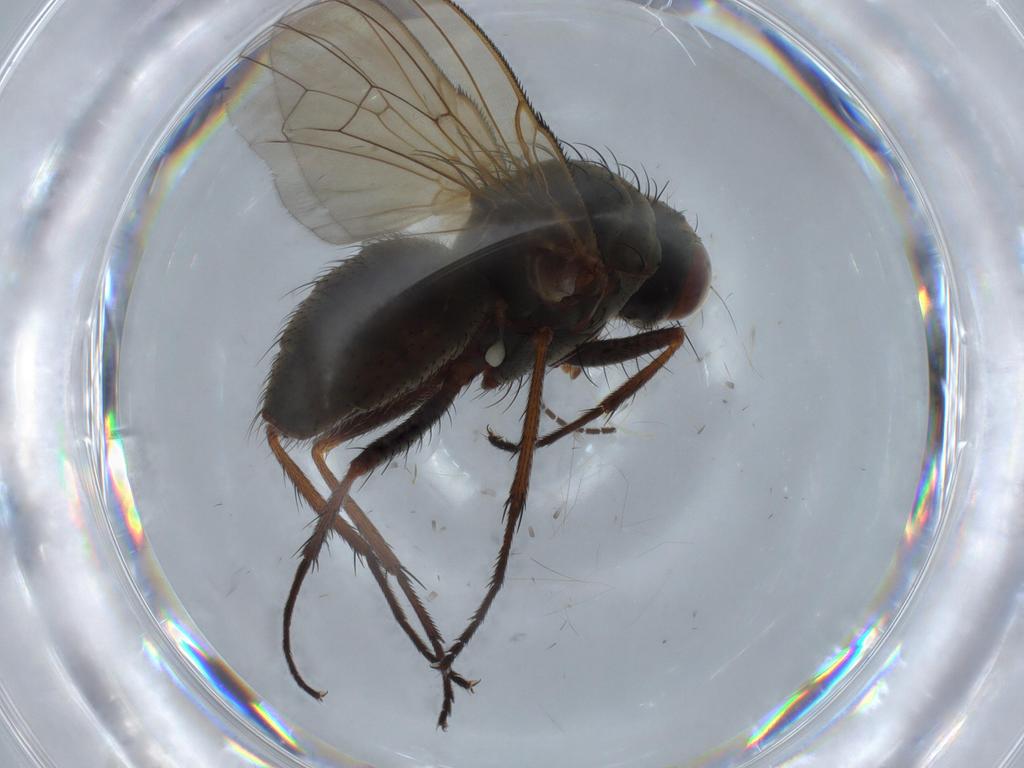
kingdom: Animalia
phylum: Arthropoda
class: Insecta
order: Diptera
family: Anthomyiidae
